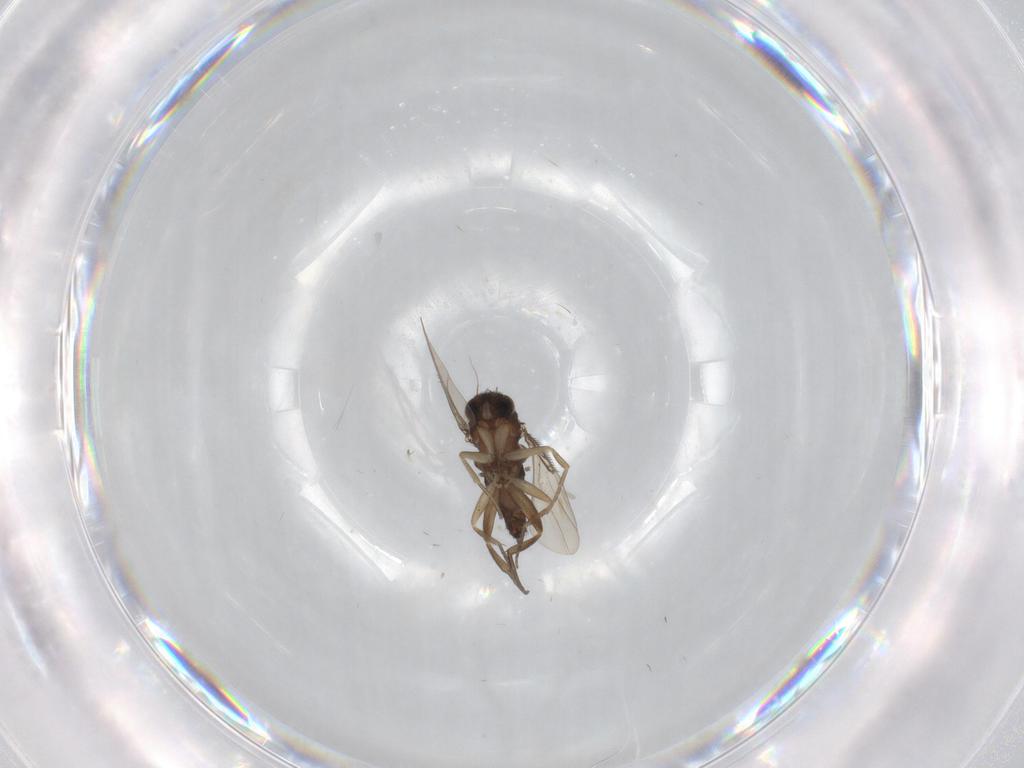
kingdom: Animalia
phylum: Arthropoda
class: Insecta
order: Diptera
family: Phoridae
